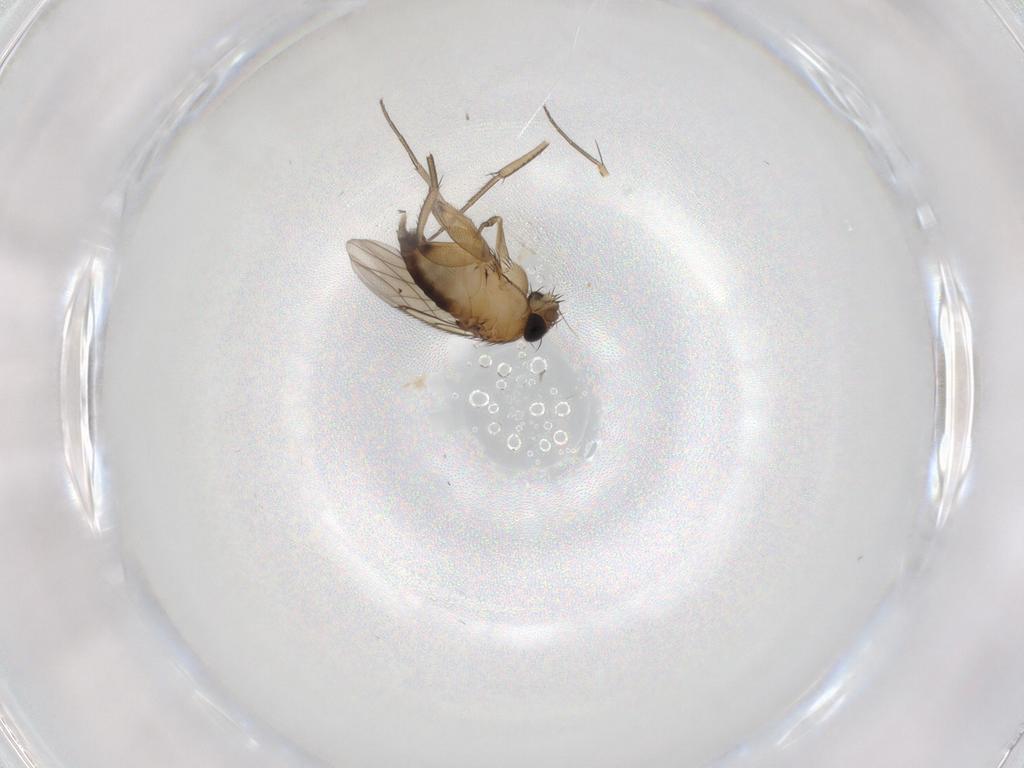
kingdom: Animalia
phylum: Arthropoda
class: Insecta
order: Diptera
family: Phoridae
